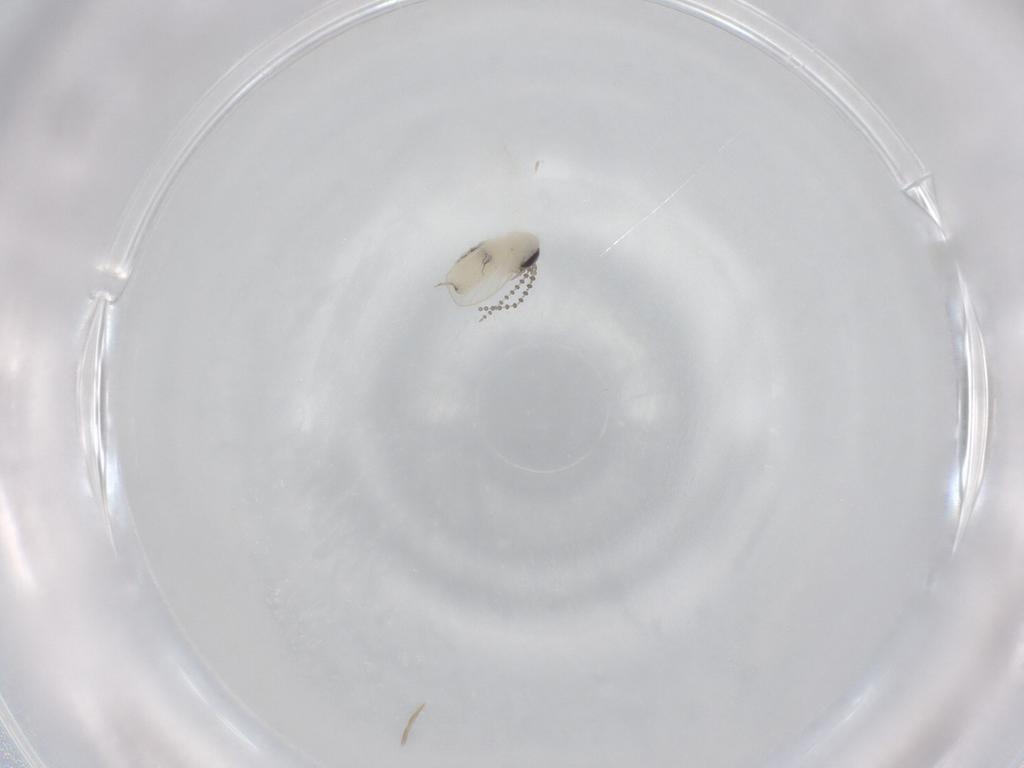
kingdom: Animalia
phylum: Arthropoda
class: Insecta
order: Diptera
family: Psychodidae
